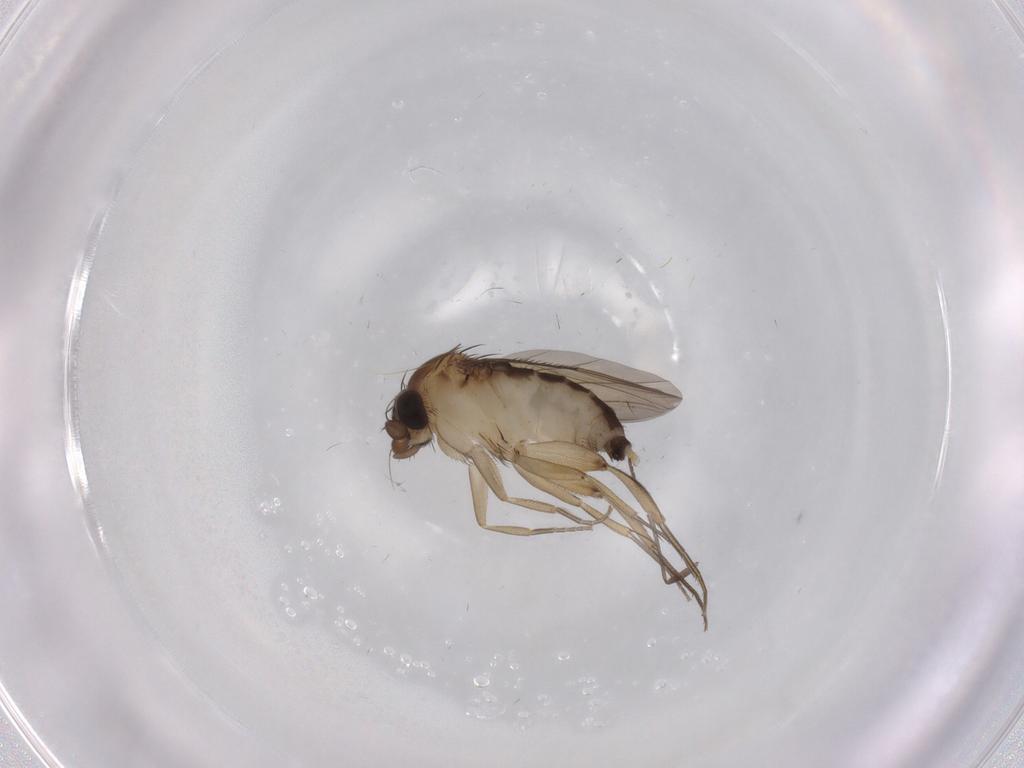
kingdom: Animalia
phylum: Arthropoda
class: Insecta
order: Diptera
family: Phoridae
